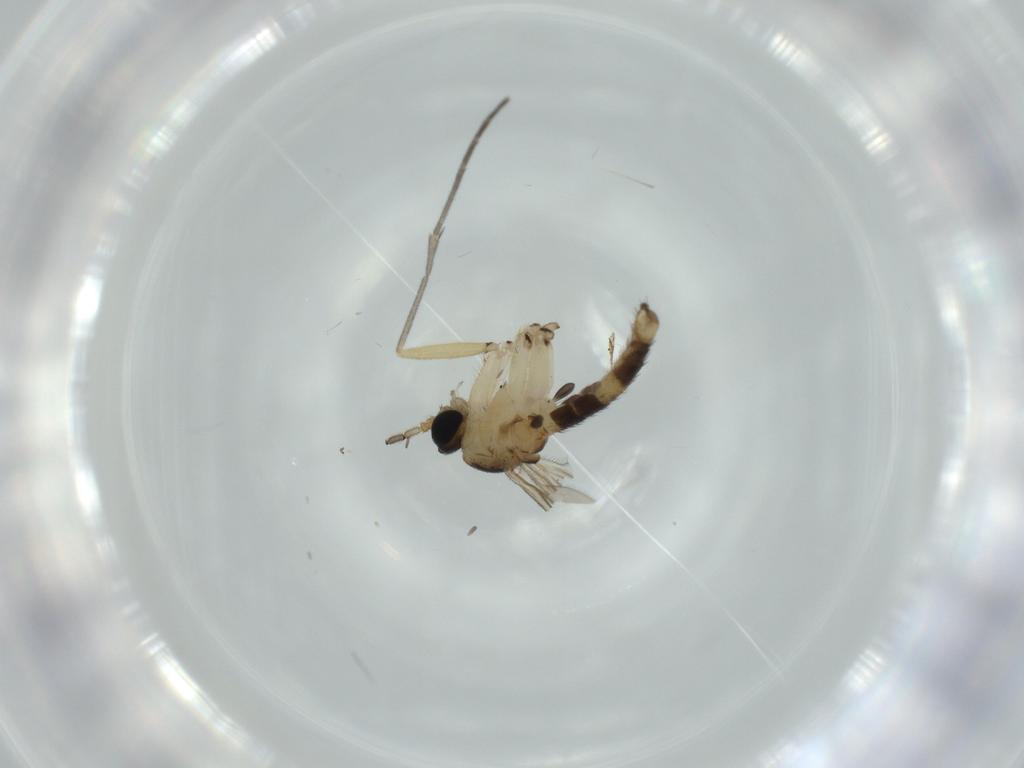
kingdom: Animalia
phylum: Arthropoda
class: Insecta
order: Diptera
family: Sciaridae
